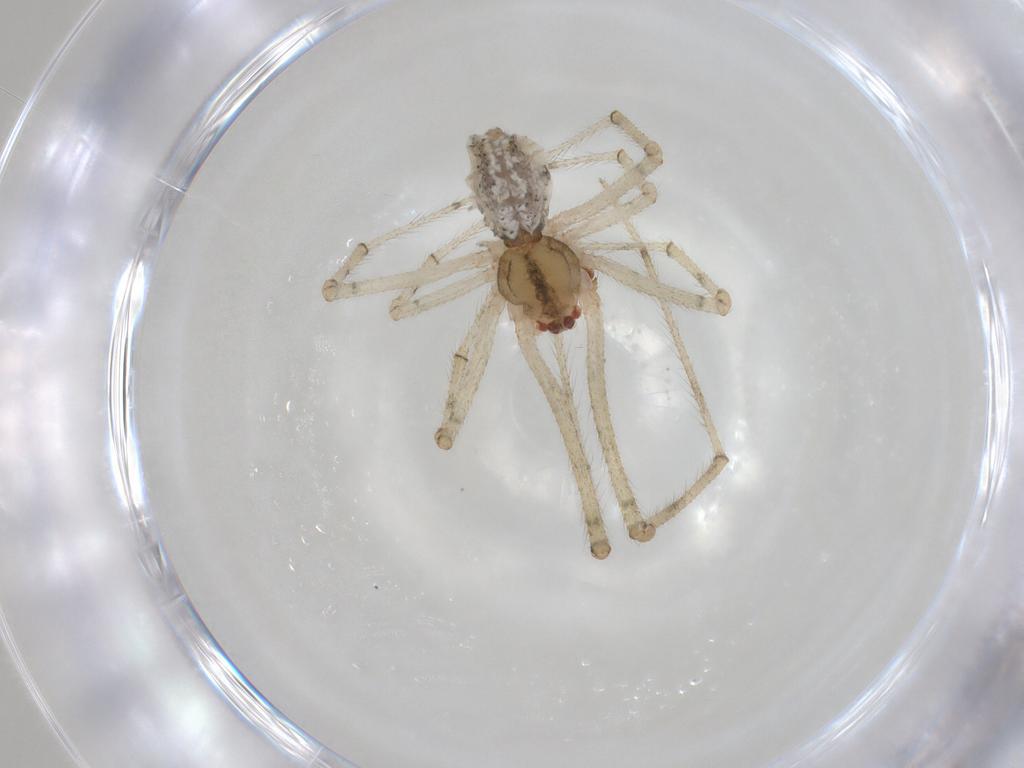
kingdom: Animalia
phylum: Arthropoda
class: Arachnida
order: Araneae
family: Theridiidae
